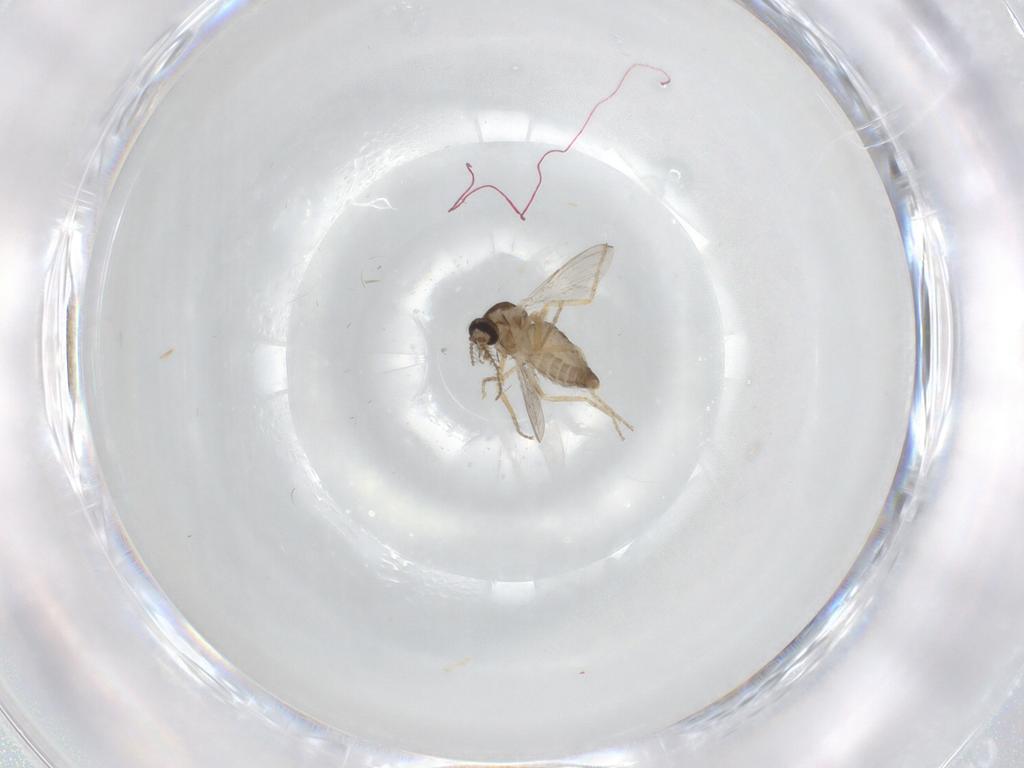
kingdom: Animalia
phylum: Arthropoda
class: Insecta
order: Diptera
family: Ceratopogonidae
